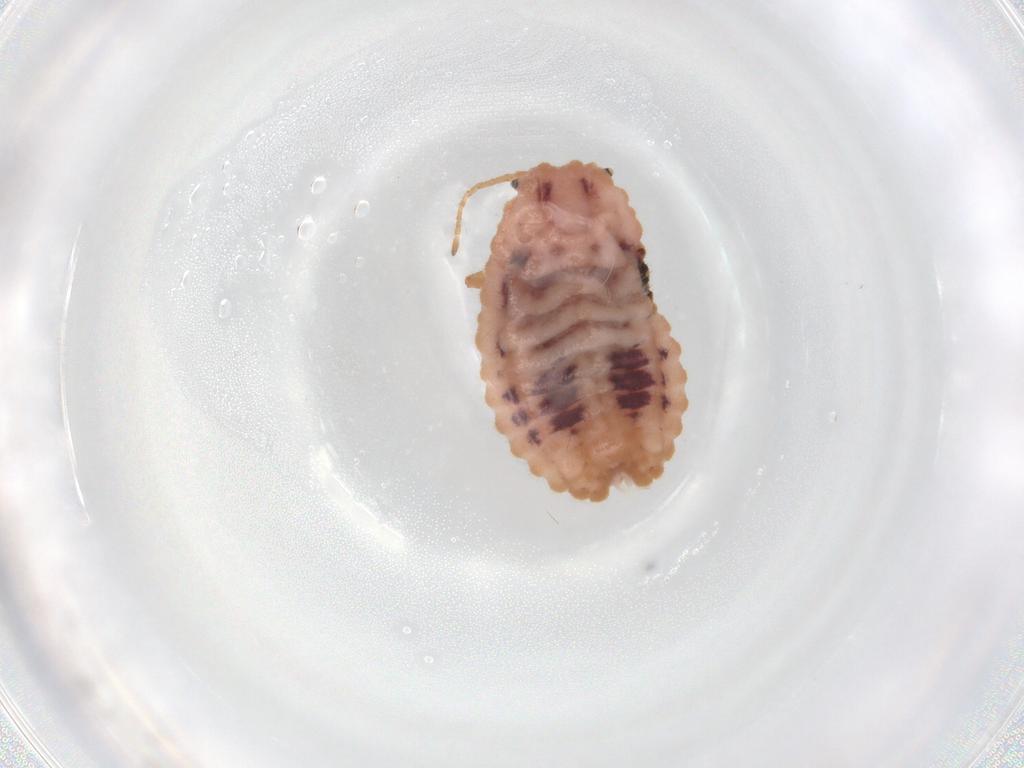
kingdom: Animalia
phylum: Arthropoda
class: Insecta
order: Hemiptera
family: Coccoidea_incertae_sedis
